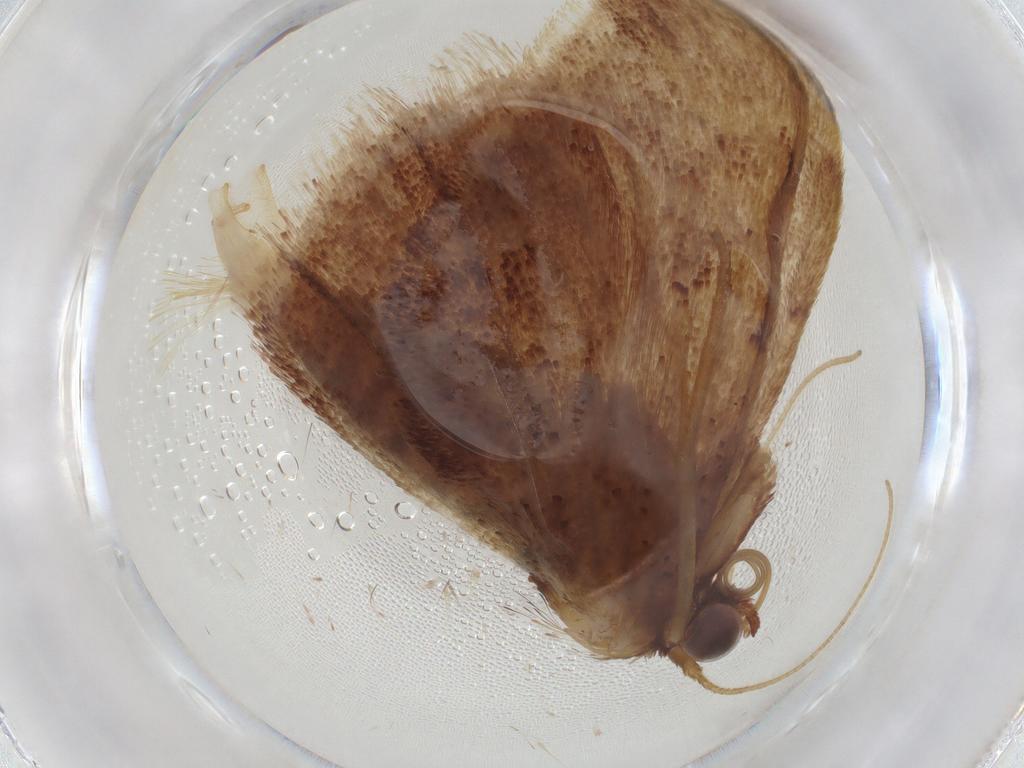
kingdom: Animalia
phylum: Arthropoda
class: Insecta
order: Lepidoptera
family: Geometridae
